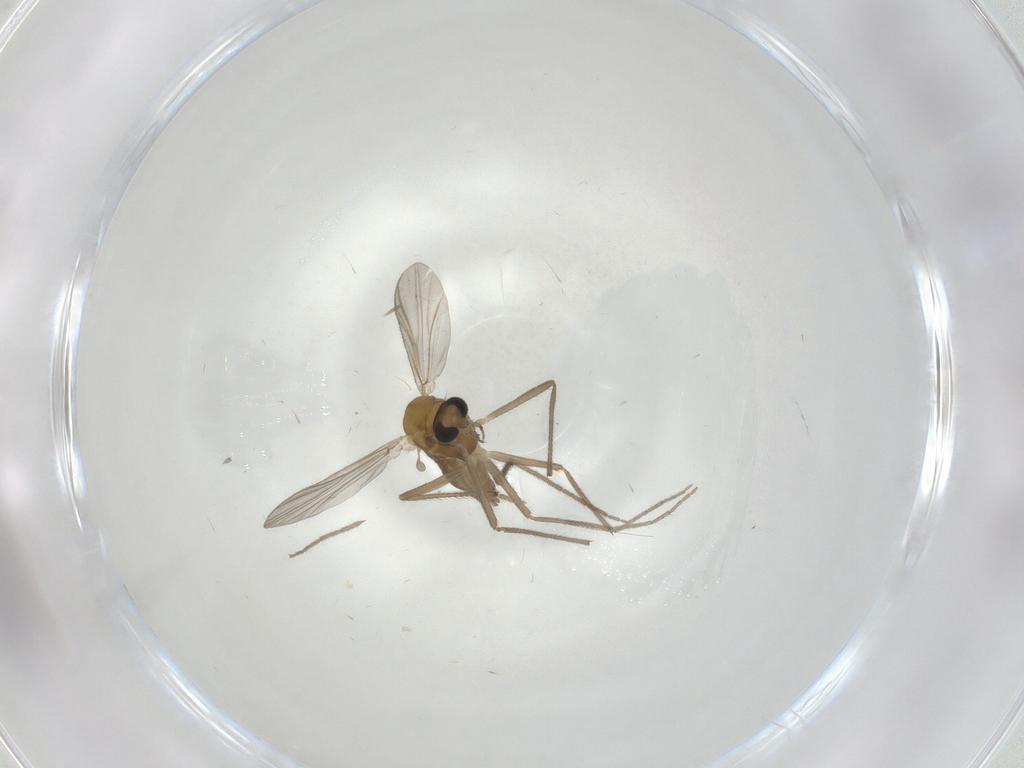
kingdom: Animalia
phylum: Arthropoda
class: Insecta
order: Diptera
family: Chironomidae
